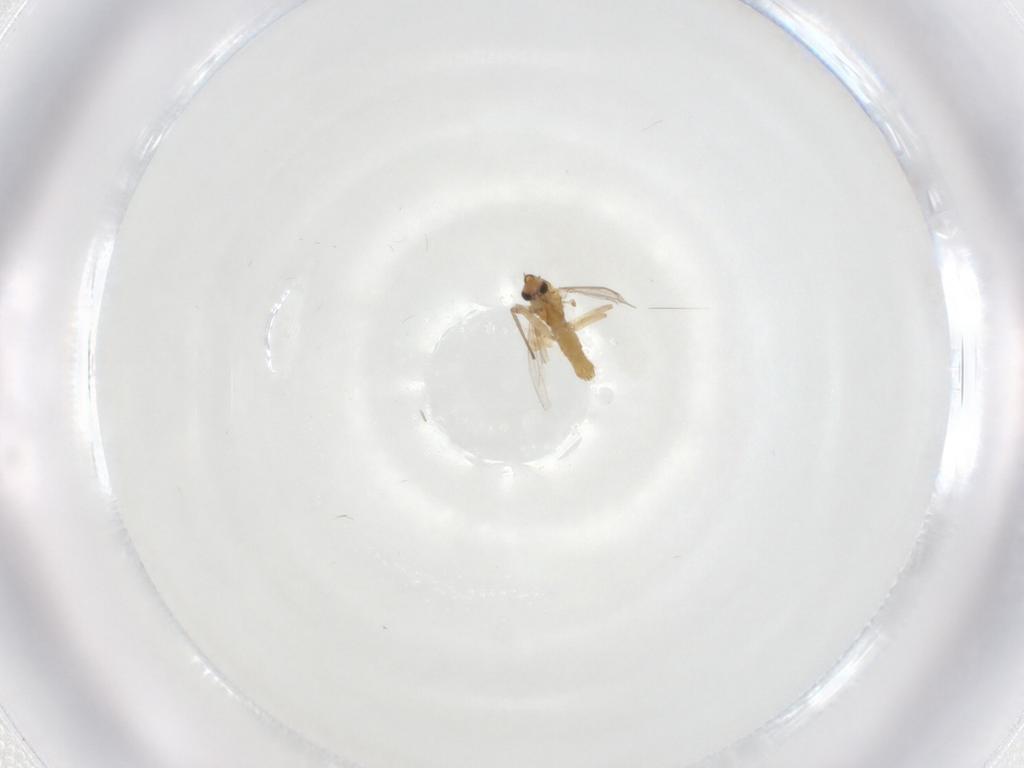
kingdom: Animalia
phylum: Arthropoda
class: Insecta
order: Diptera
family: Chironomidae
